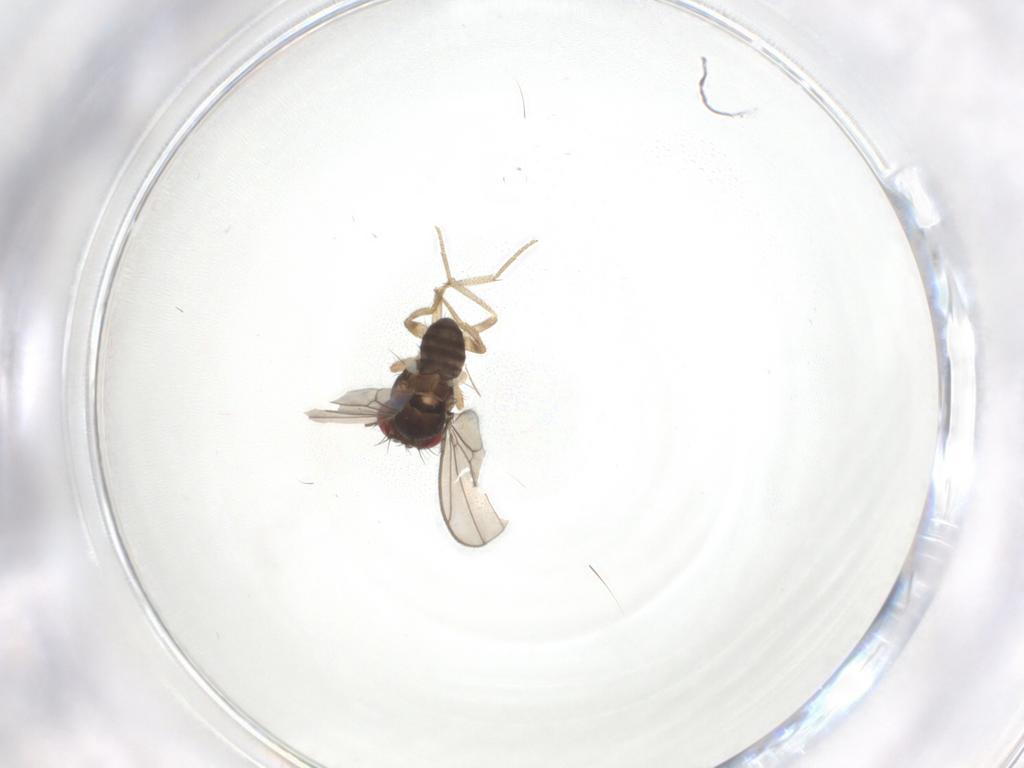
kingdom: Animalia
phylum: Arthropoda
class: Insecta
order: Diptera
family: Drosophilidae
